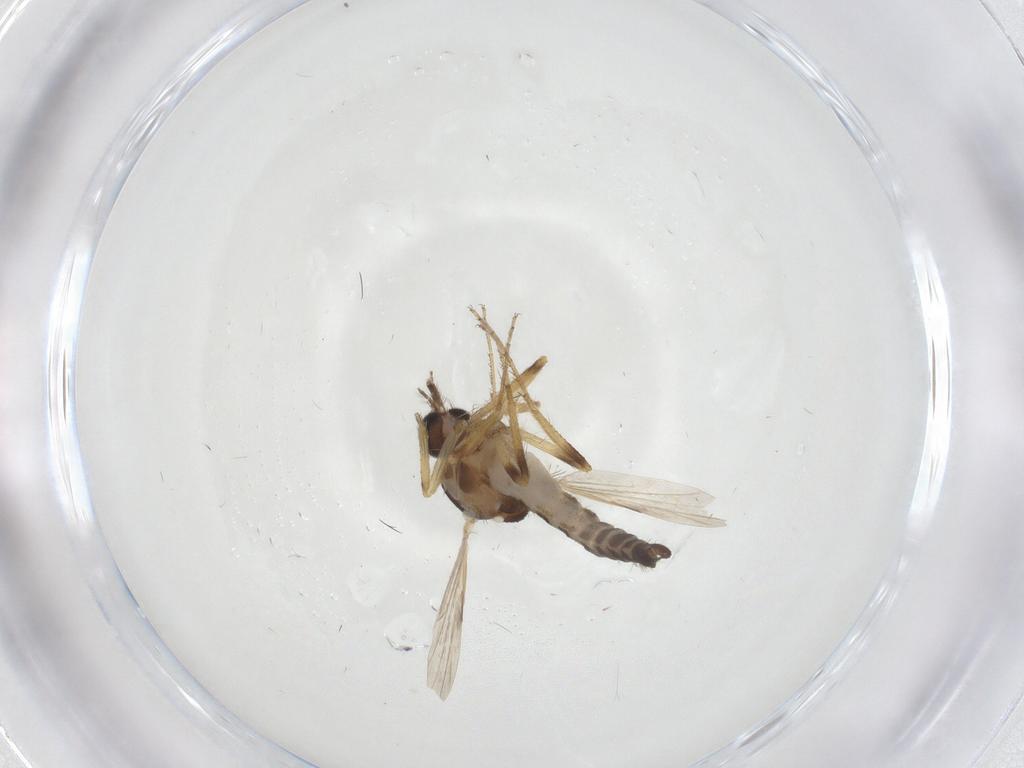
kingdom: Animalia
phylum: Arthropoda
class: Insecta
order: Diptera
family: Ceratopogonidae
